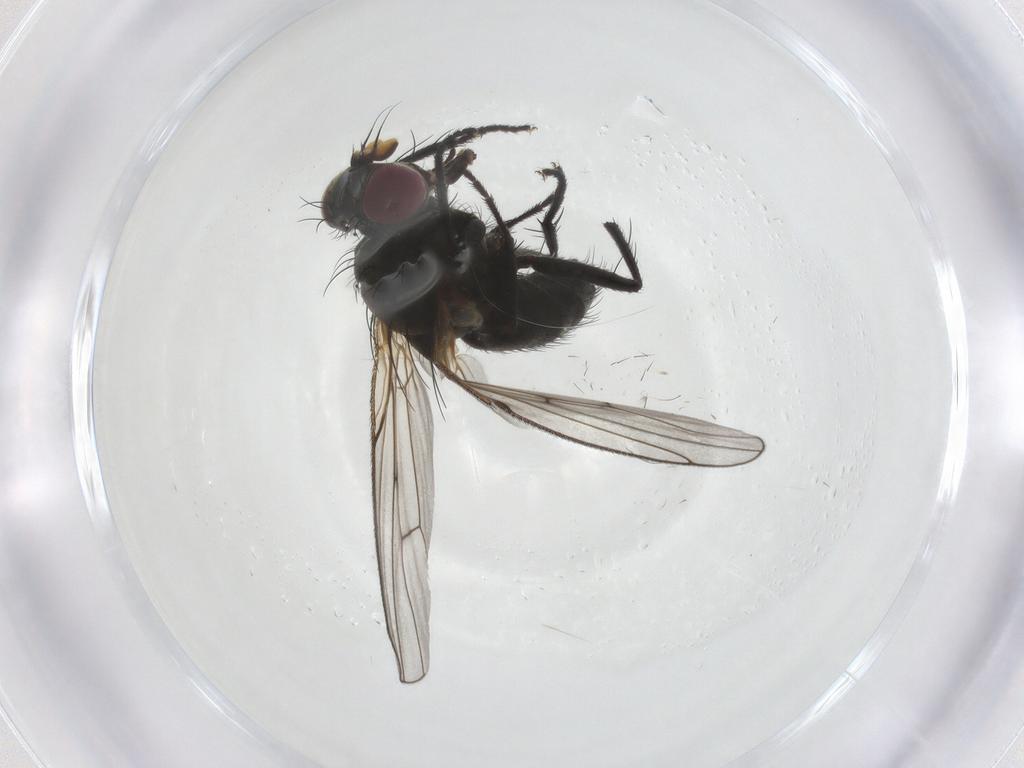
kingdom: Animalia
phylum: Arthropoda
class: Insecta
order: Diptera
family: Muscidae
